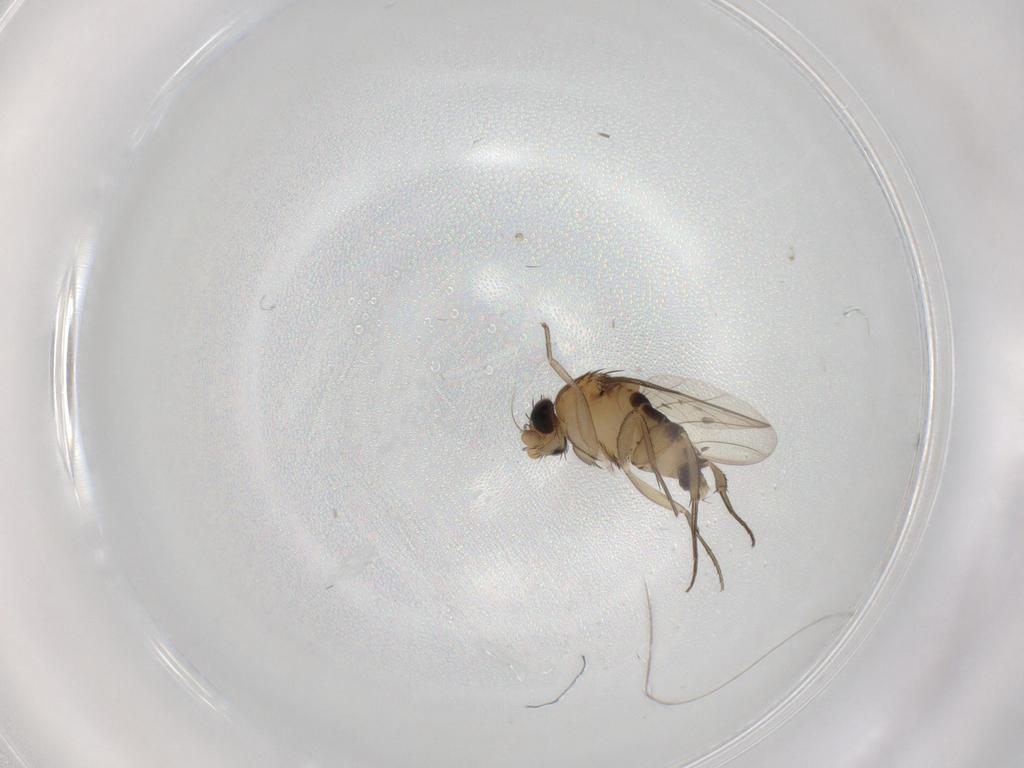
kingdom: Animalia
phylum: Arthropoda
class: Insecta
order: Diptera
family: Phoridae
